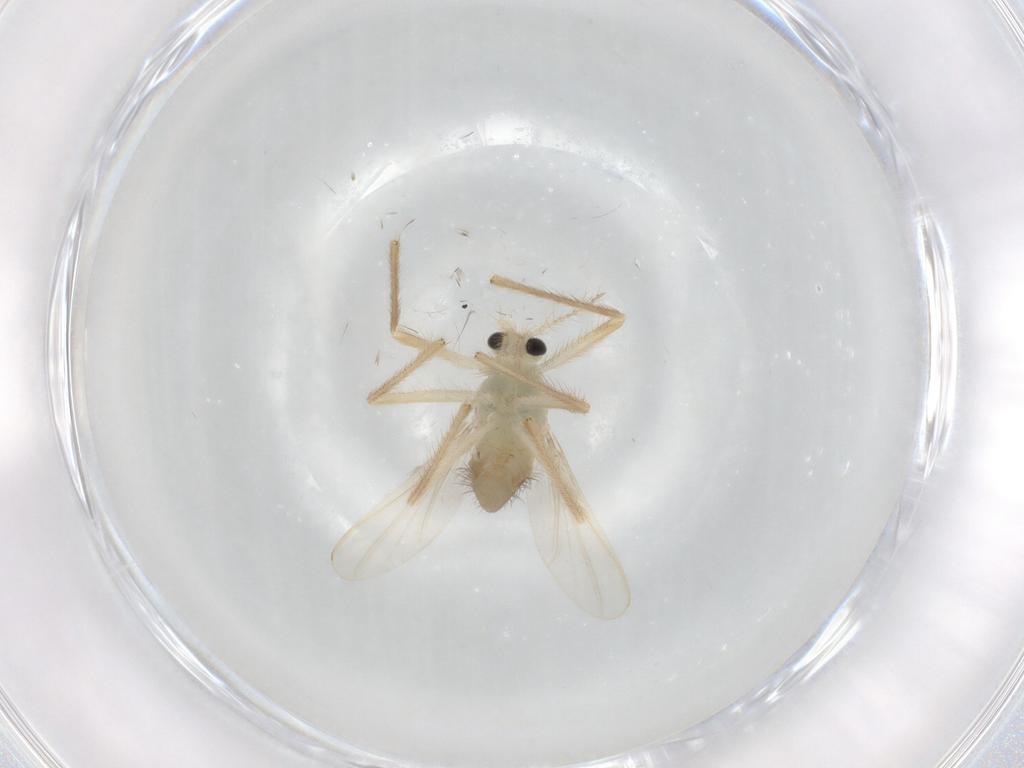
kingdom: Animalia
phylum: Arthropoda
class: Insecta
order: Diptera
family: Chironomidae
